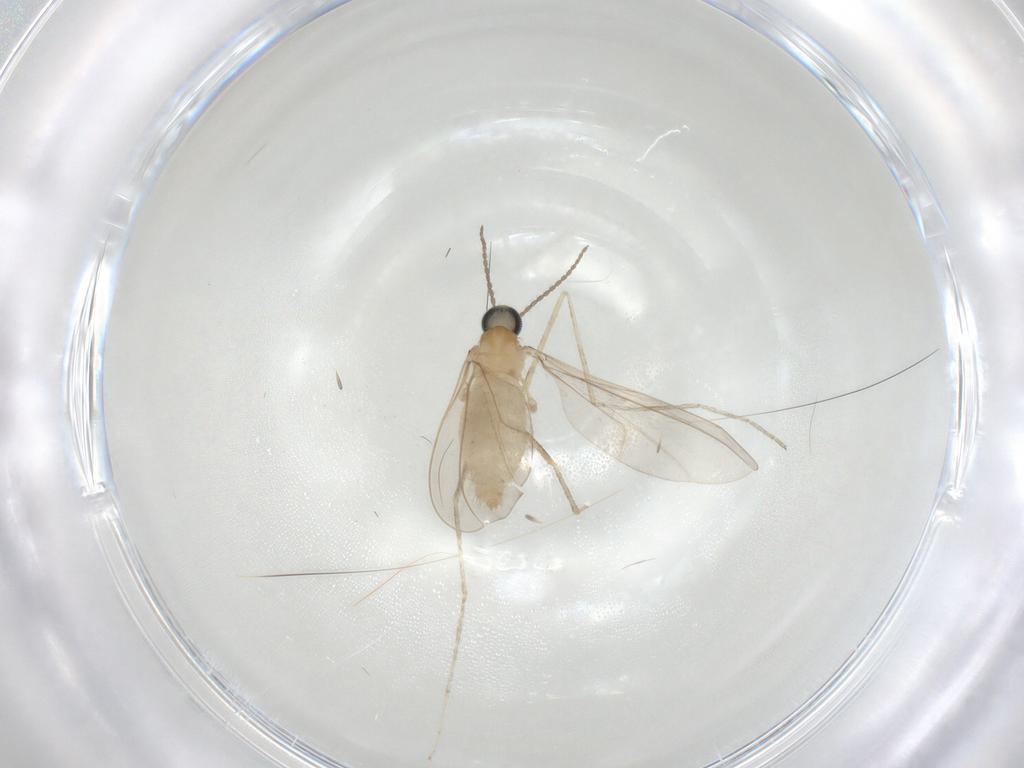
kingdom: Animalia
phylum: Arthropoda
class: Insecta
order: Diptera
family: Cecidomyiidae
